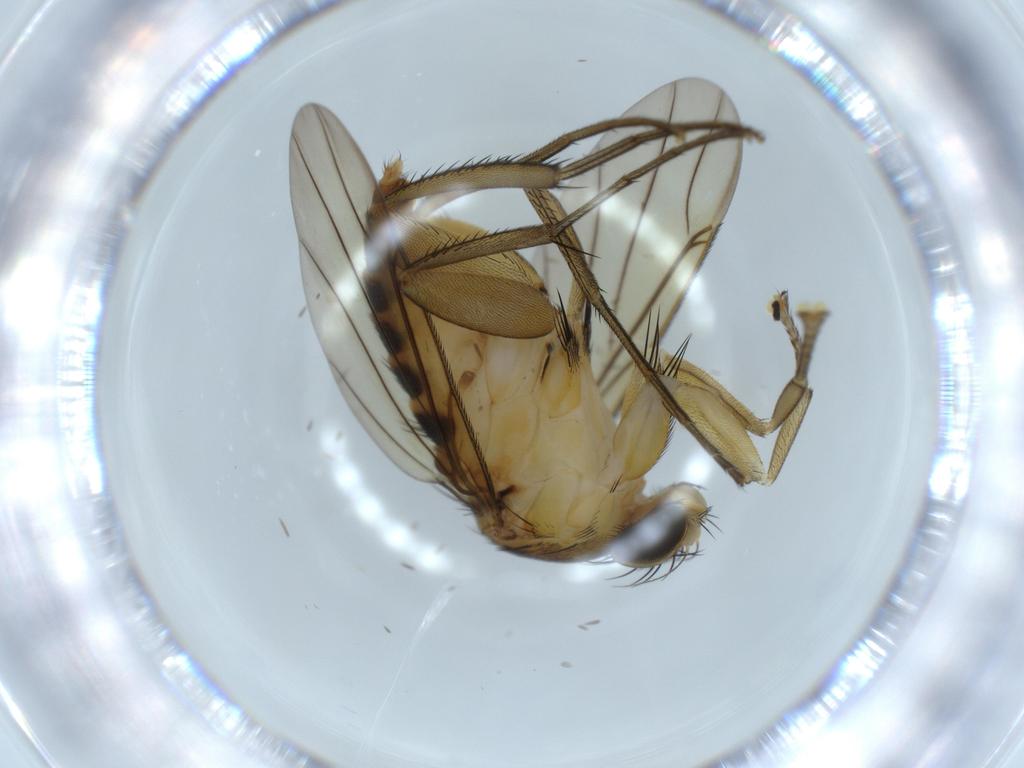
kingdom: Animalia
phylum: Arthropoda
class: Insecta
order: Diptera
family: Chloropidae
